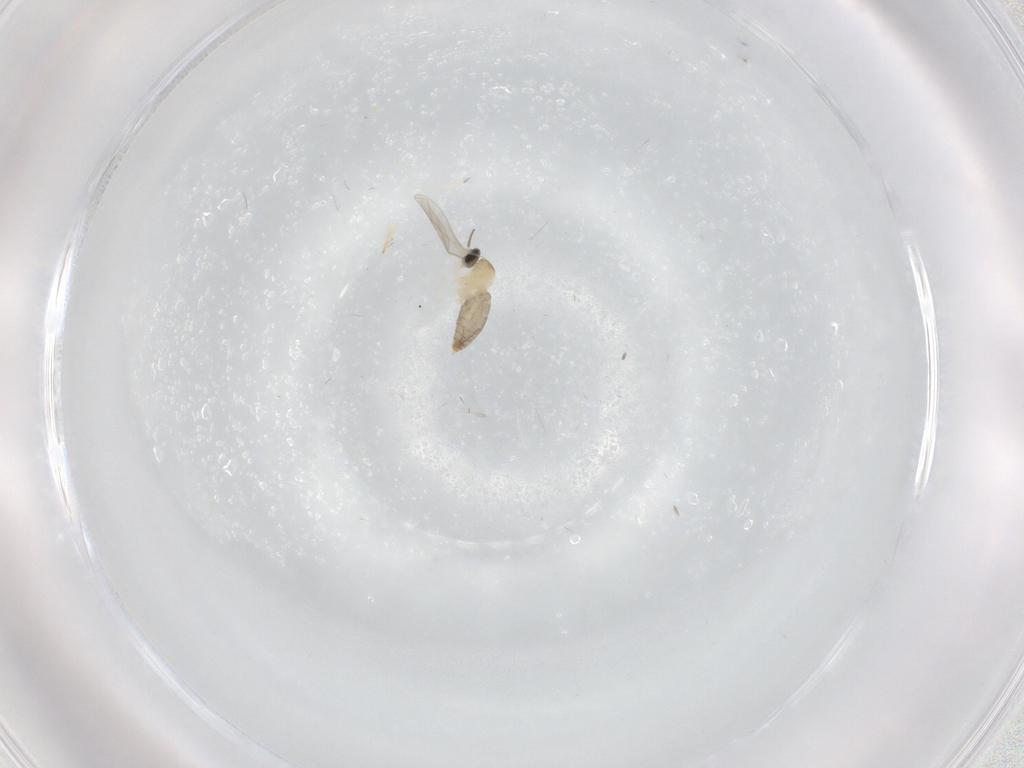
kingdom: Animalia
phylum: Arthropoda
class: Insecta
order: Diptera
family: Cecidomyiidae
